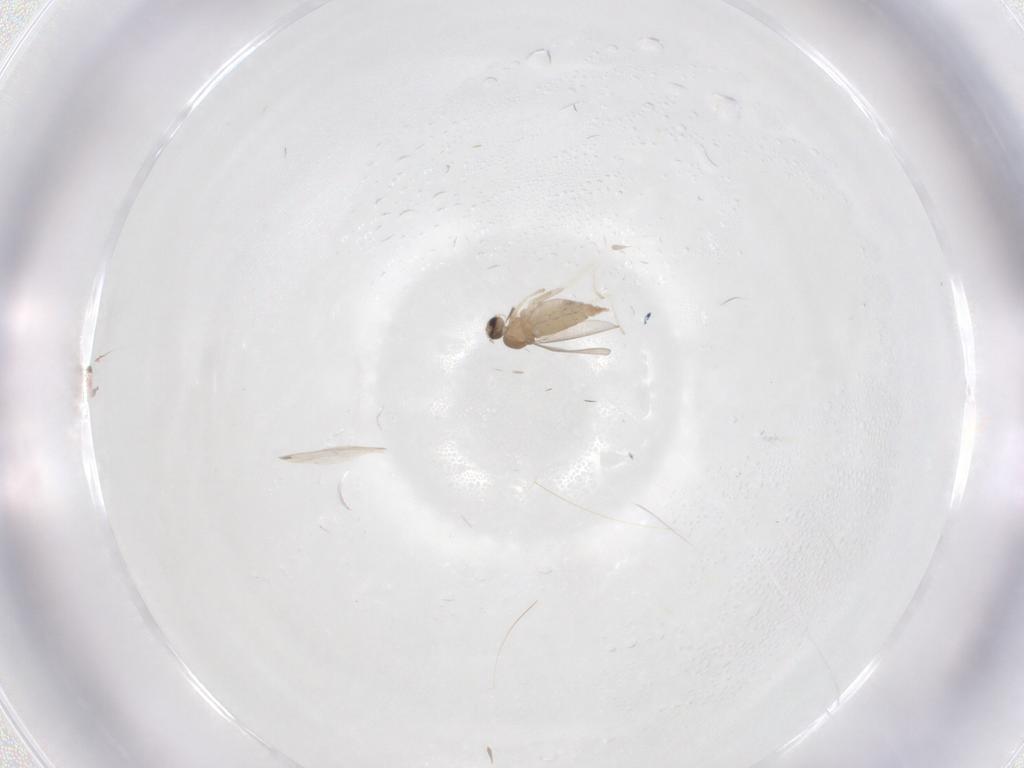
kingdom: Animalia
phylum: Arthropoda
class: Insecta
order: Diptera
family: Cecidomyiidae
